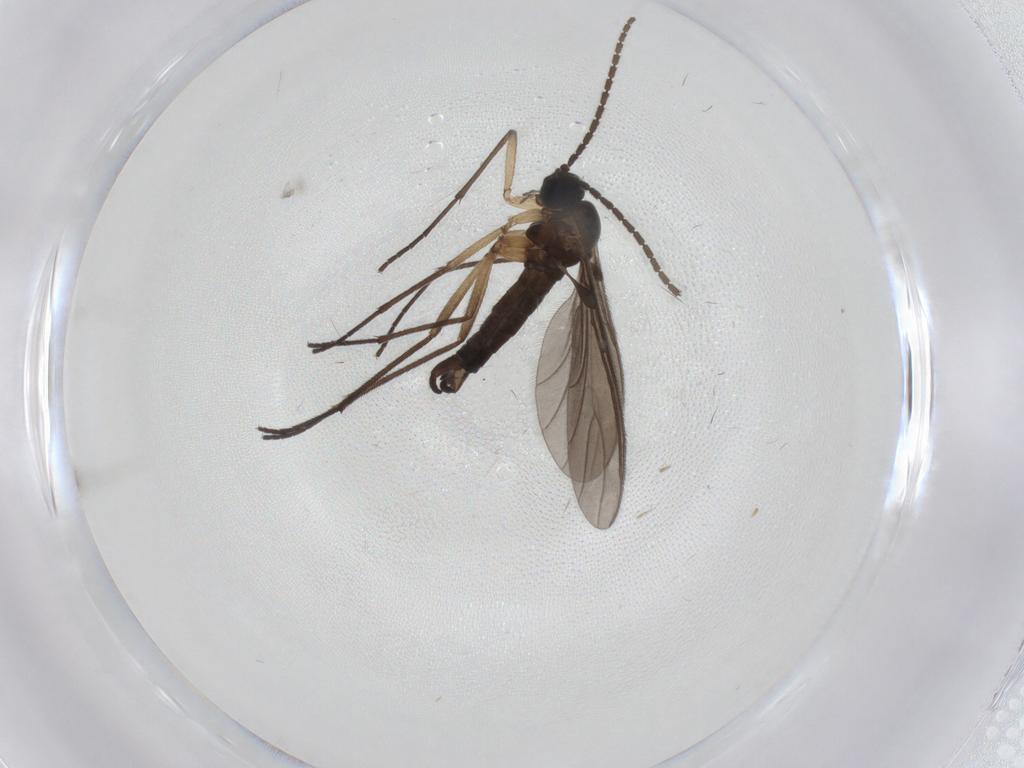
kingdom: Animalia
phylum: Arthropoda
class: Insecta
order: Diptera
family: Sciaridae
